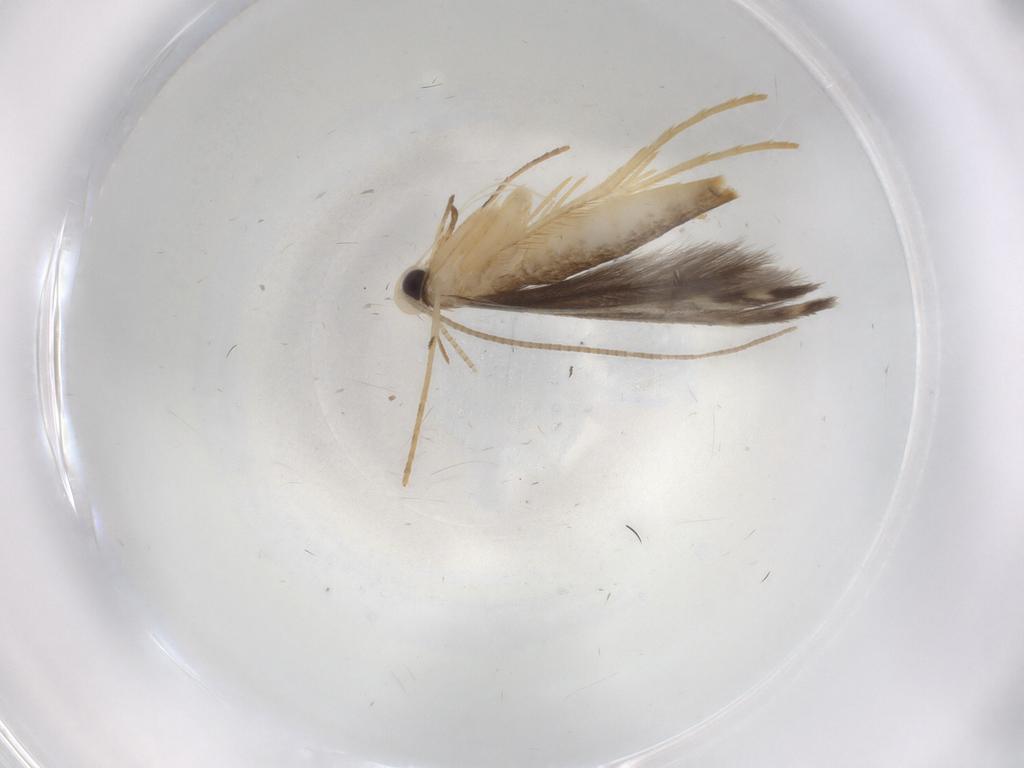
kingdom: Animalia
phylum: Arthropoda
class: Insecta
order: Lepidoptera
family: Gracillariidae
